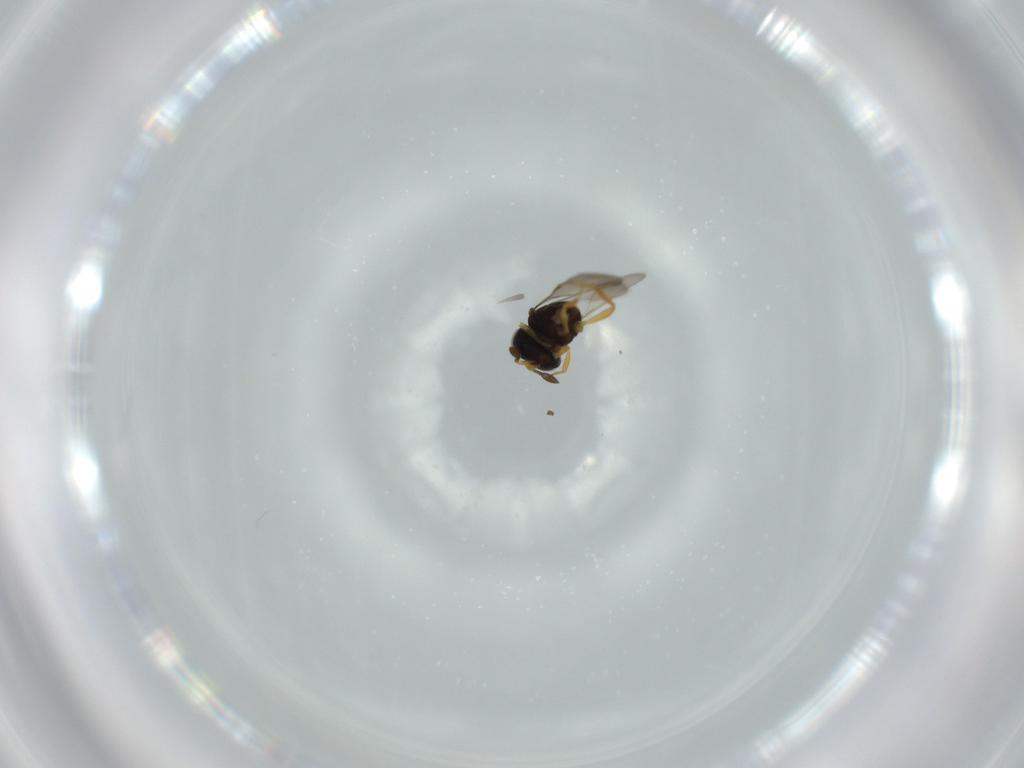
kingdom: Animalia
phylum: Arthropoda
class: Insecta
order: Hymenoptera
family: Scelionidae
